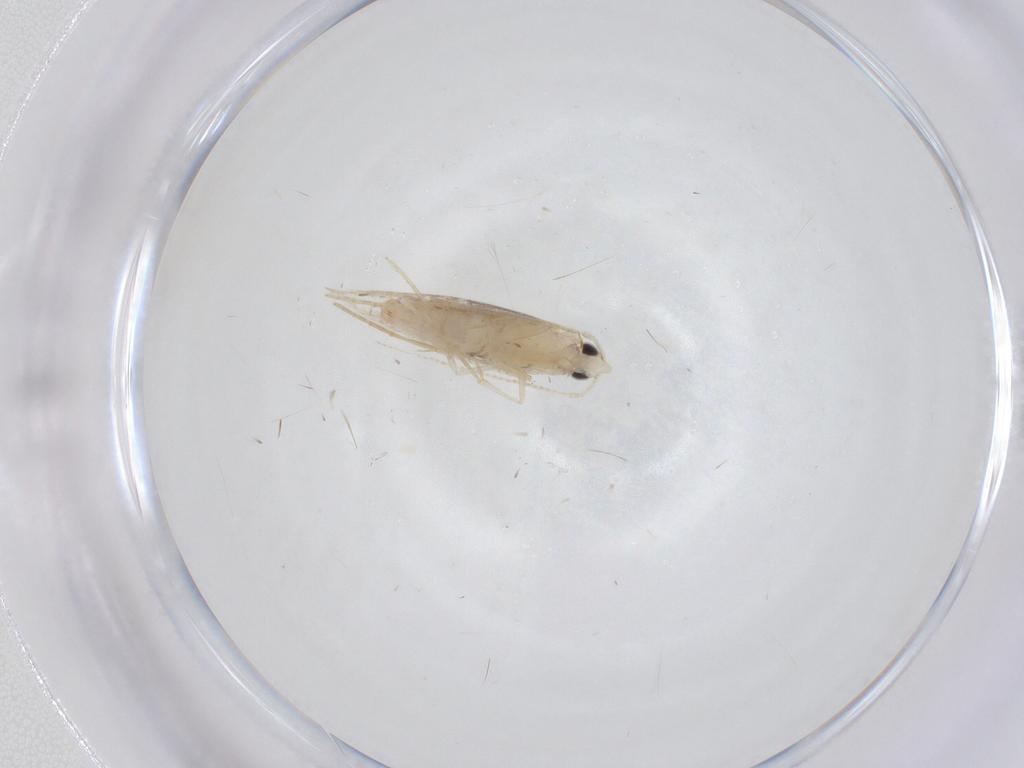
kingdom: Animalia
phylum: Arthropoda
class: Insecta
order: Lepidoptera
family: Tineidae
